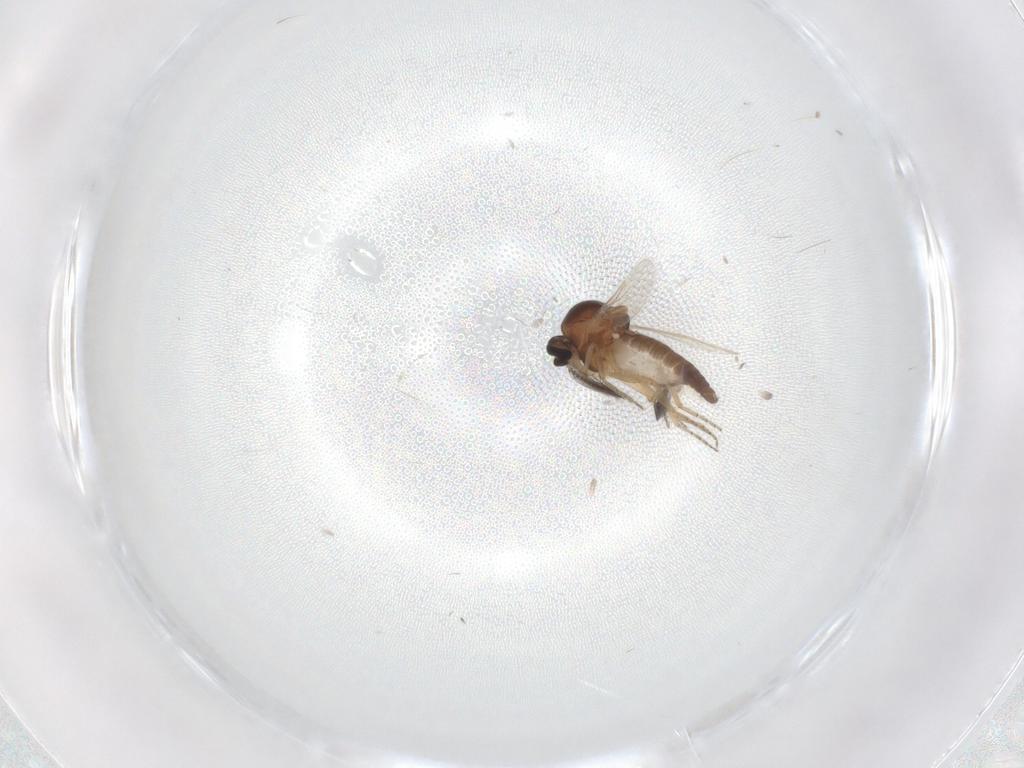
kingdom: Animalia
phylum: Arthropoda
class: Insecta
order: Diptera
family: Ceratopogonidae
